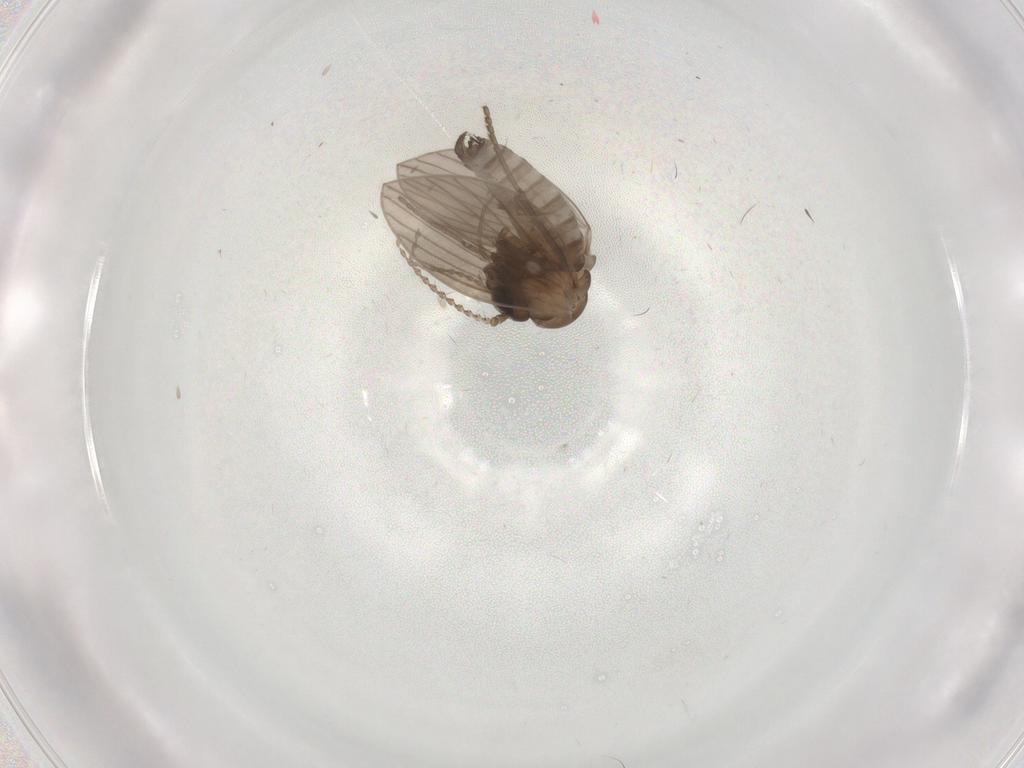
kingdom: Animalia
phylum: Arthropoda
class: Insecta
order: Diptera
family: Psychodidae
